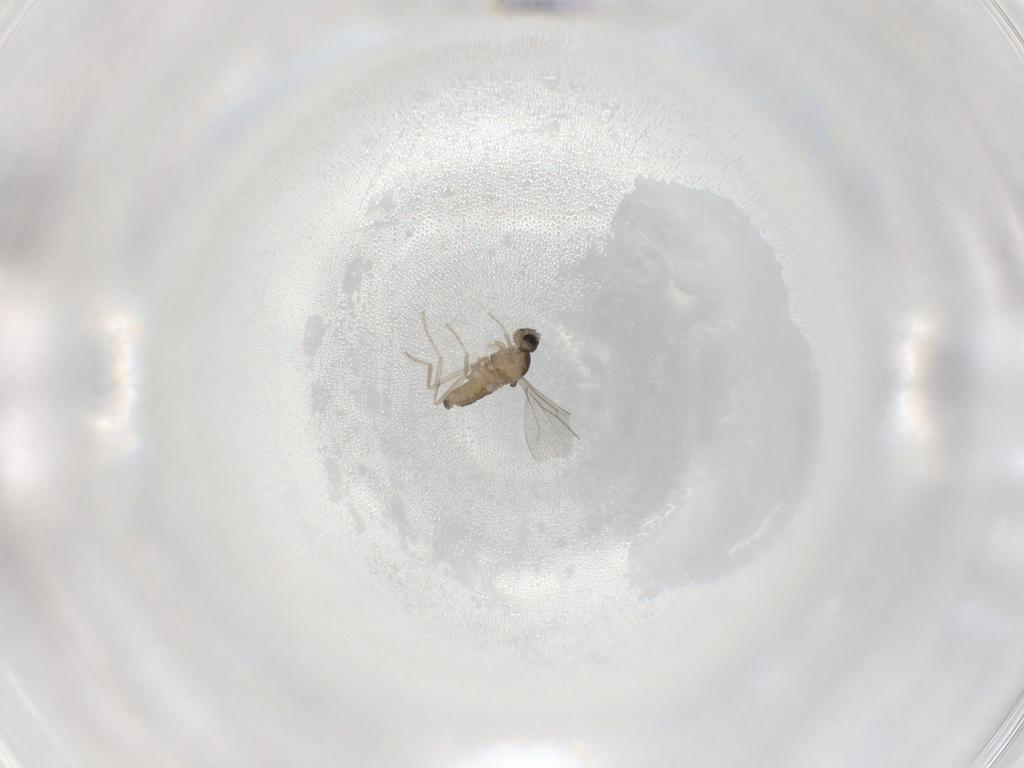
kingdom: Animalia
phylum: Arthropoda
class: Insecta
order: Diptera
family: Cecidomyiidae
